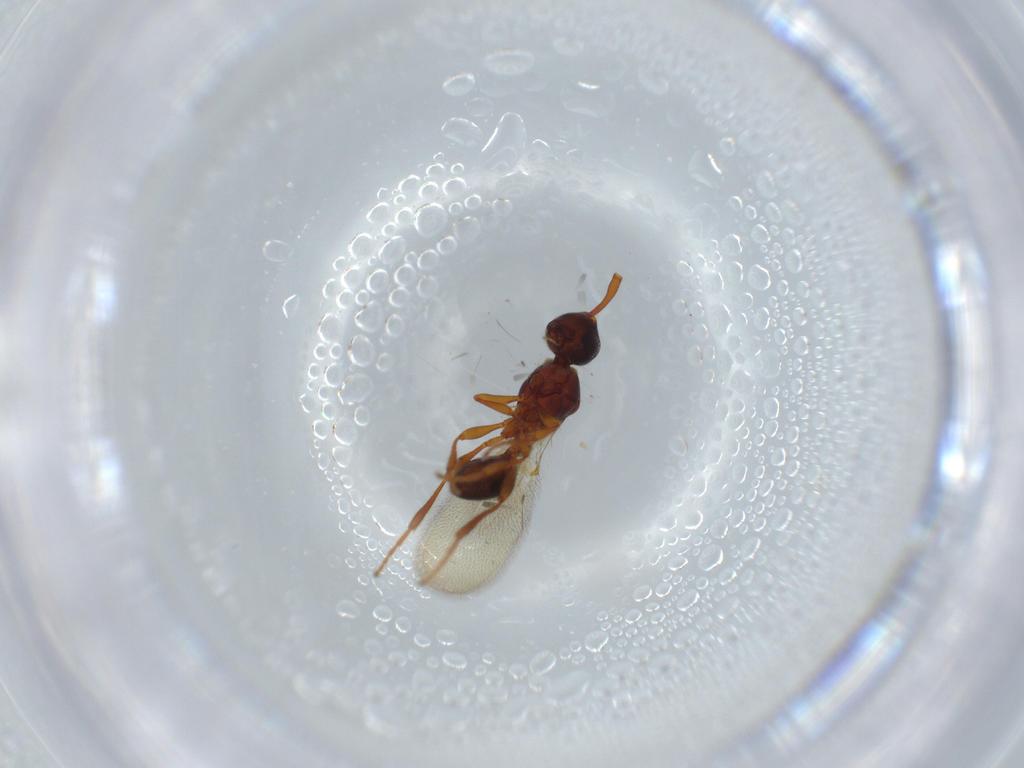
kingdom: Animalia
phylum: Arthropoda
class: Insecta
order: Hymenoptera
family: Diapriidae
